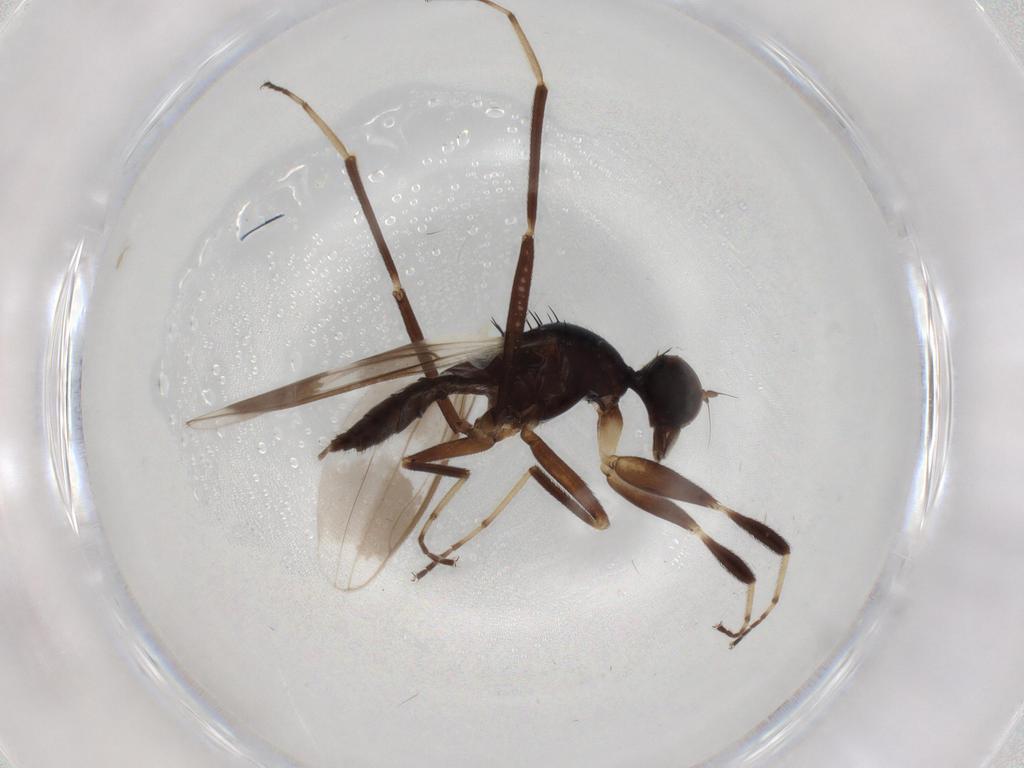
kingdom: Animalia
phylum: Arthropoda
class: Insecta
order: Diptera
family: Hybotidae
